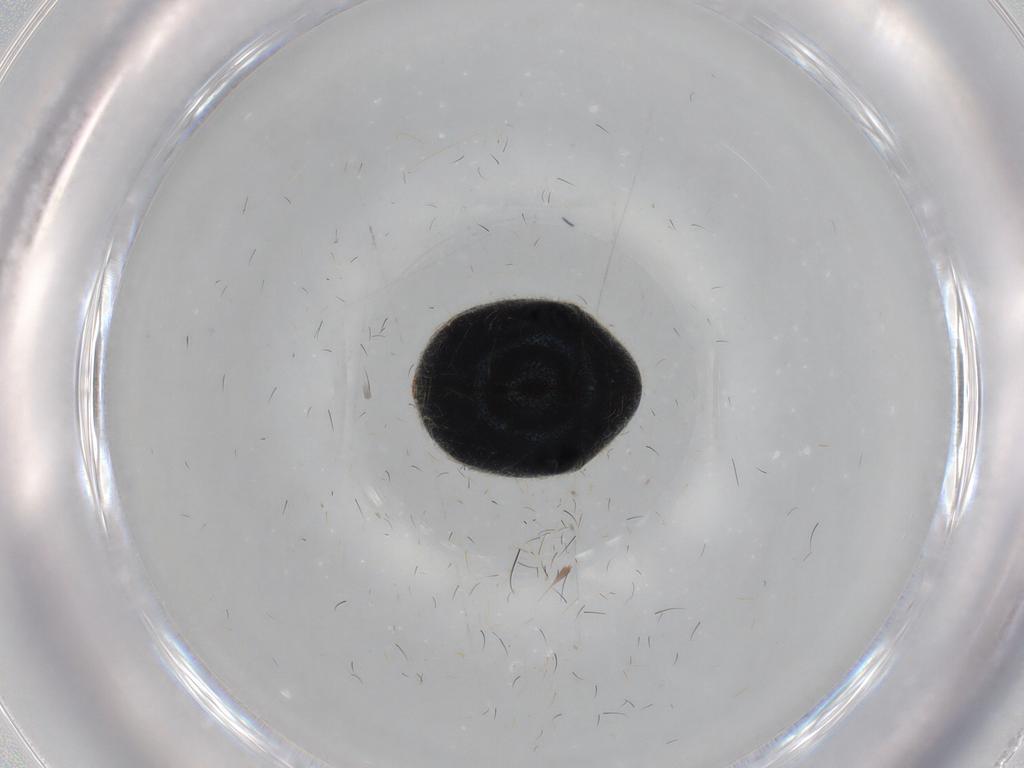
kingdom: Animalia
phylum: Arthropoda
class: Insecta
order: Coleoptera
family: Ptinidae
